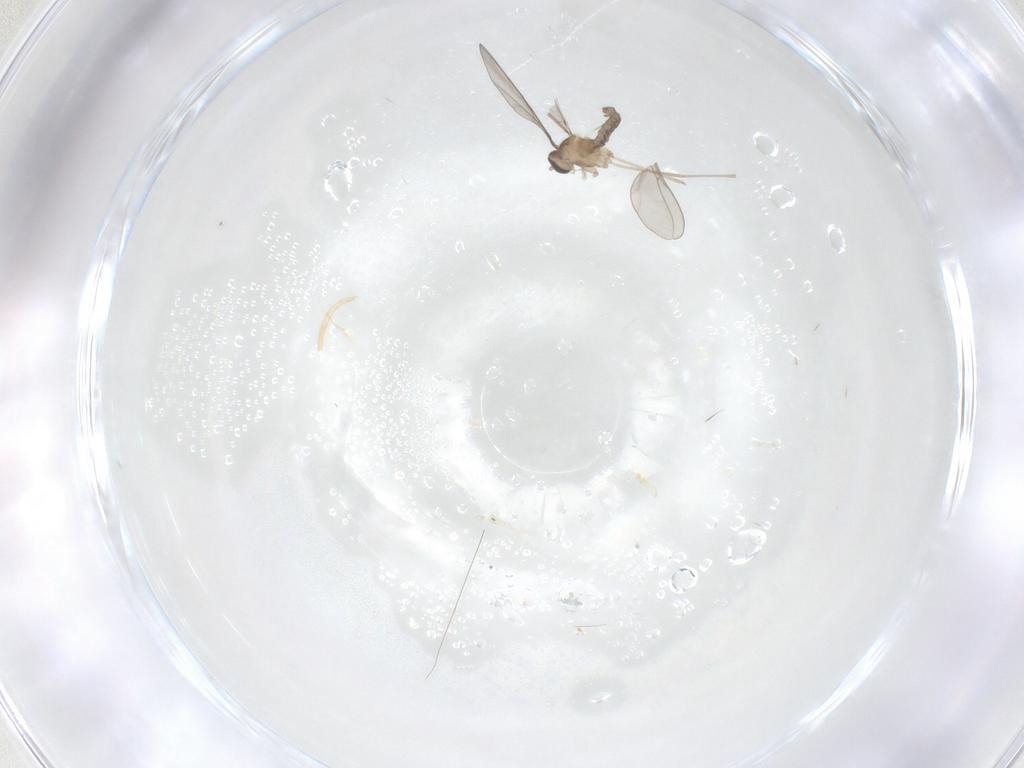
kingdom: Animalia
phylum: Arthropoda
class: Insecta
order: Diptera
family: Cecidomyiidae
